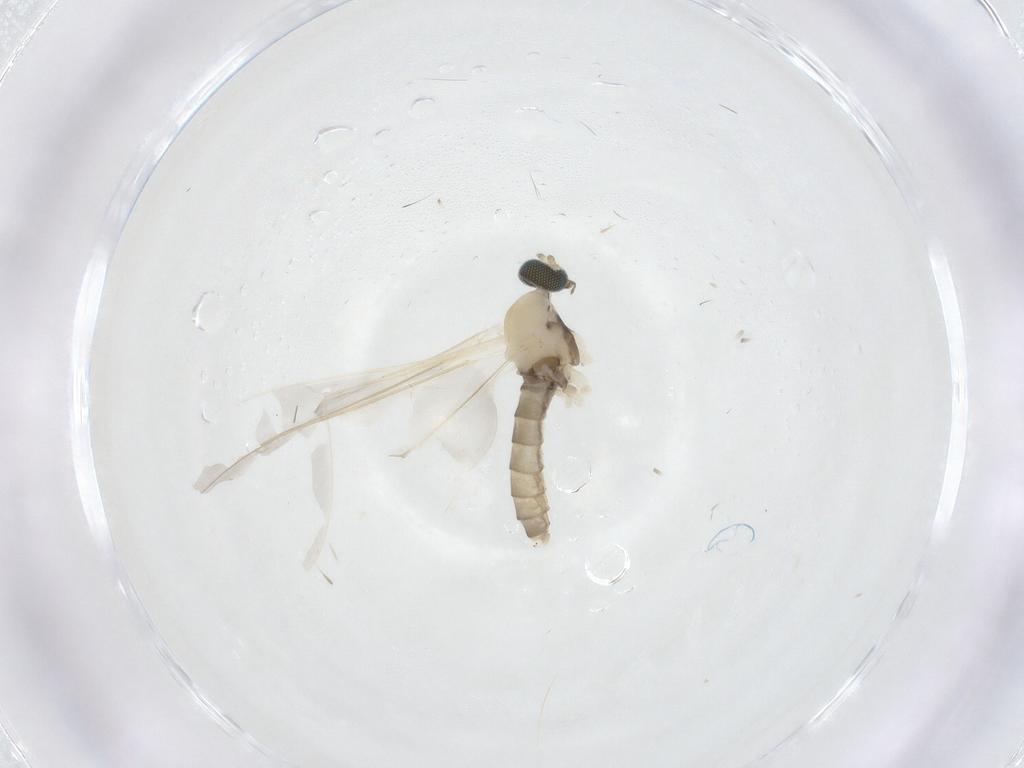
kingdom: Animalia
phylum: Arthropoda
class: Insecta
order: Diptera
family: Cecidomyiidae
